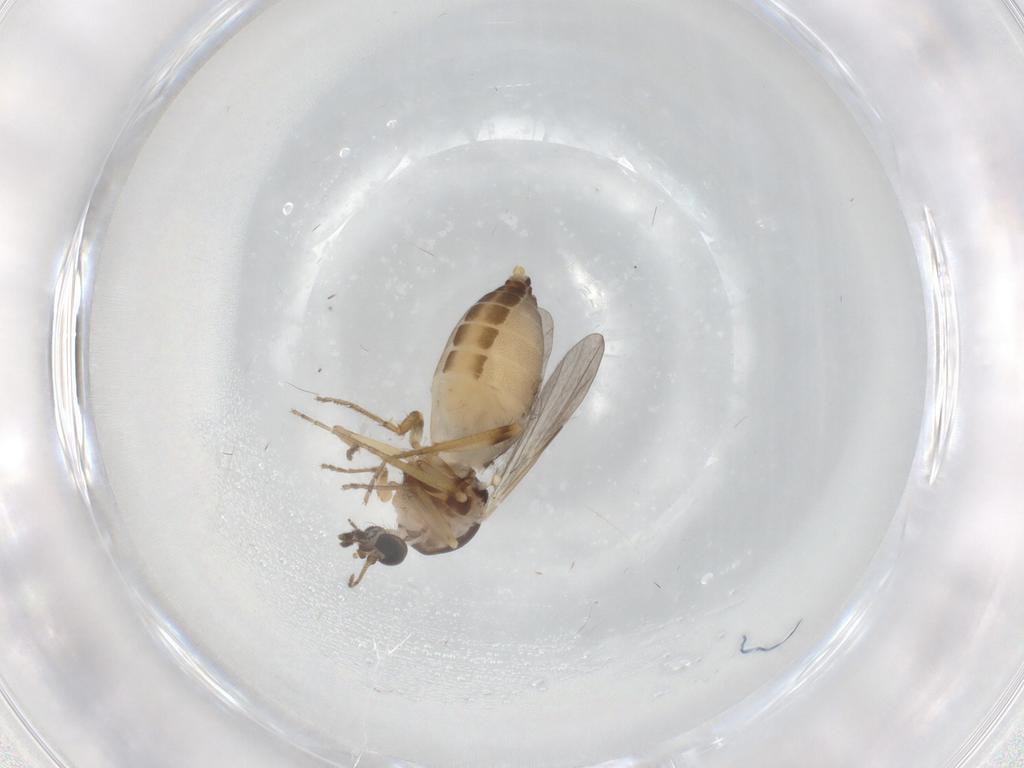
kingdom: Animalia
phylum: Arthropoda
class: Insecta
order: Diptera
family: Ceratopogonidae
